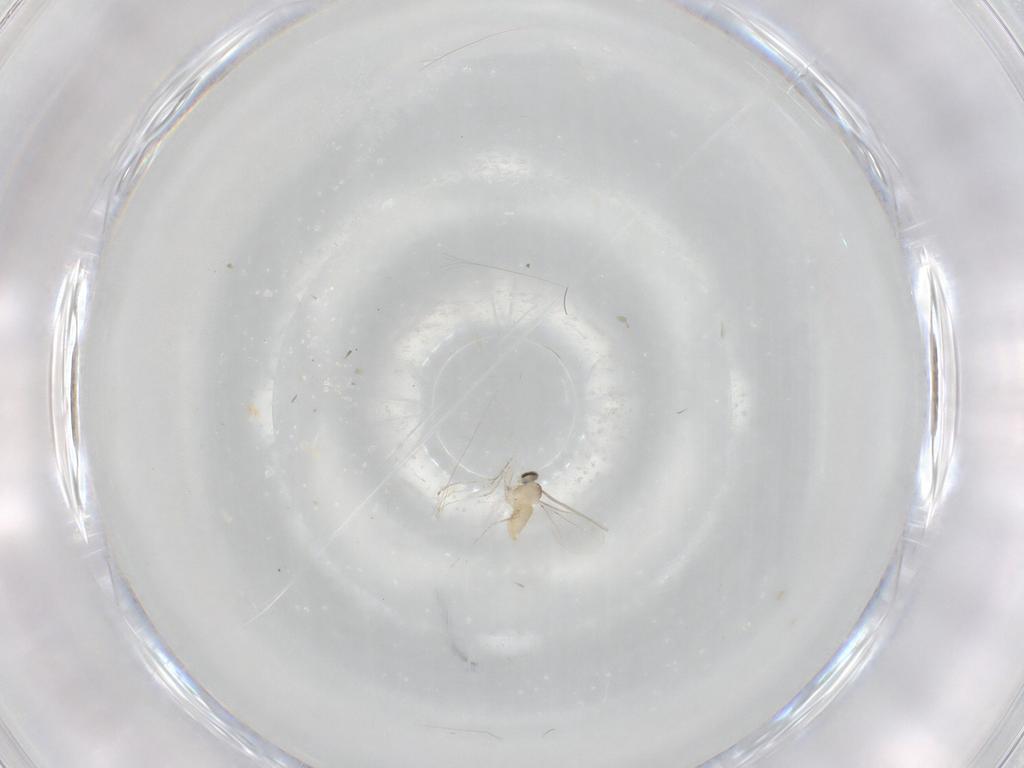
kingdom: Animalia
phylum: Arthropoda
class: Insecta
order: Diptera
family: Cecidomyiidae
